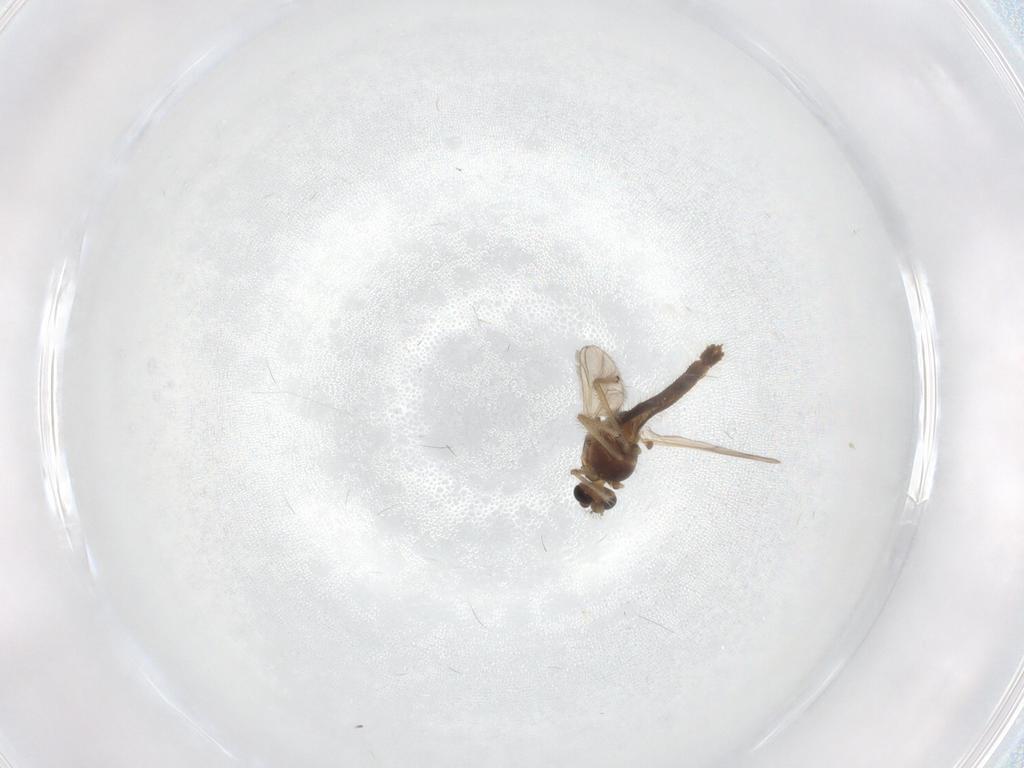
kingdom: Animalia
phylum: Arthropoda
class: Insecta
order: Diptera
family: Chironomidae
